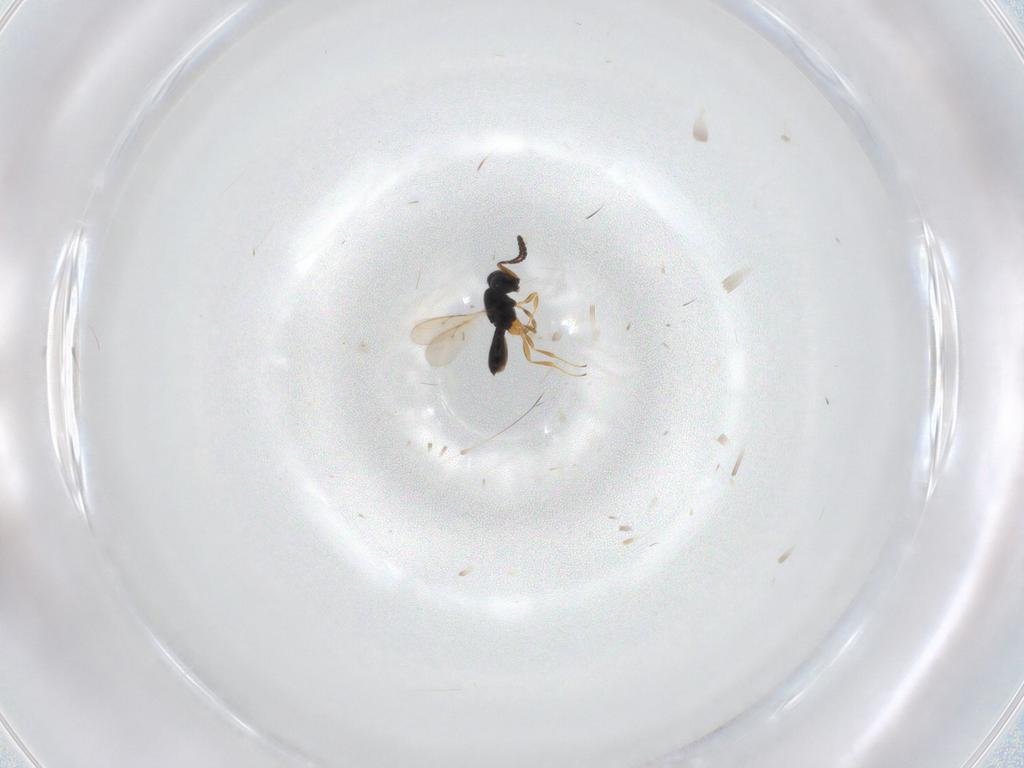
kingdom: Animalia
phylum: Arthropoda
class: Insecta
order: Hymenoptera
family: Scelionidae
